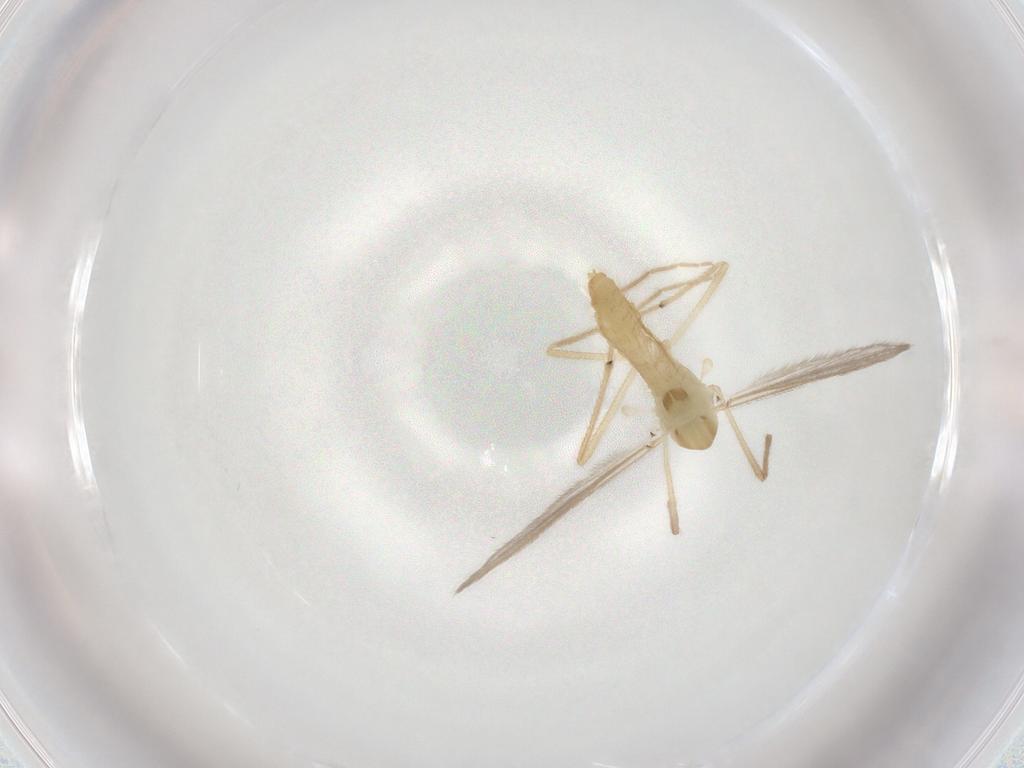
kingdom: Animalia
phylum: Arthropoda
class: Insecta
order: Diptera
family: Chironomidae
